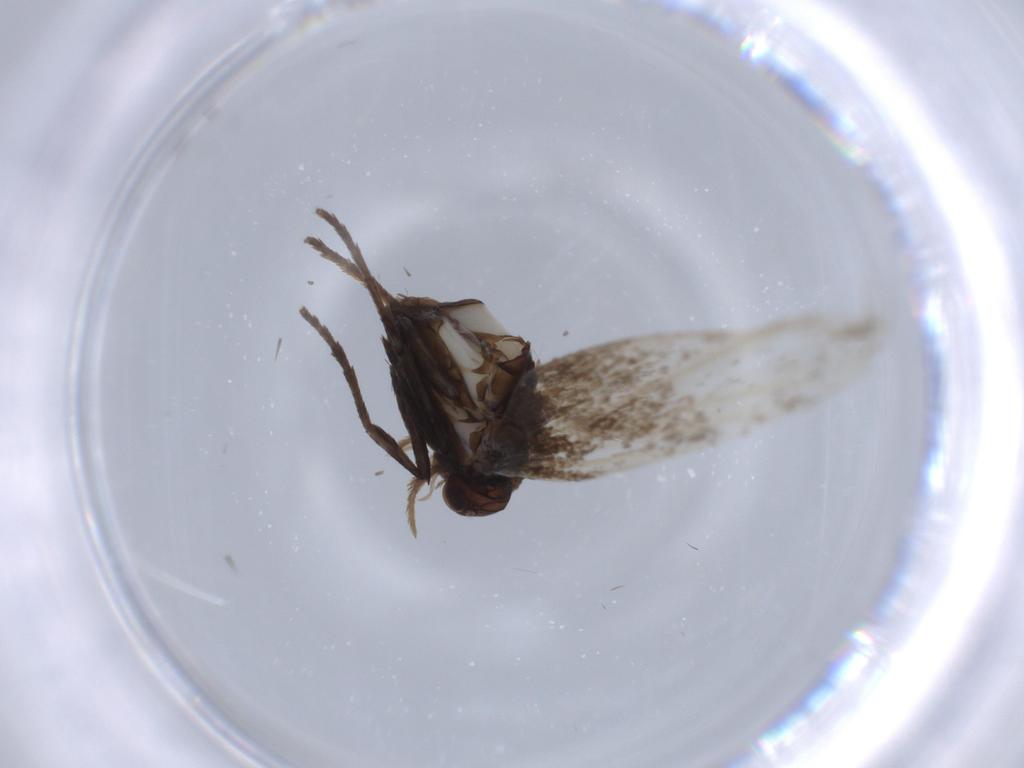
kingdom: Animalia
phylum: Arthropoda
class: Insecta
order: Lepidoptera
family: Gracillariidae
